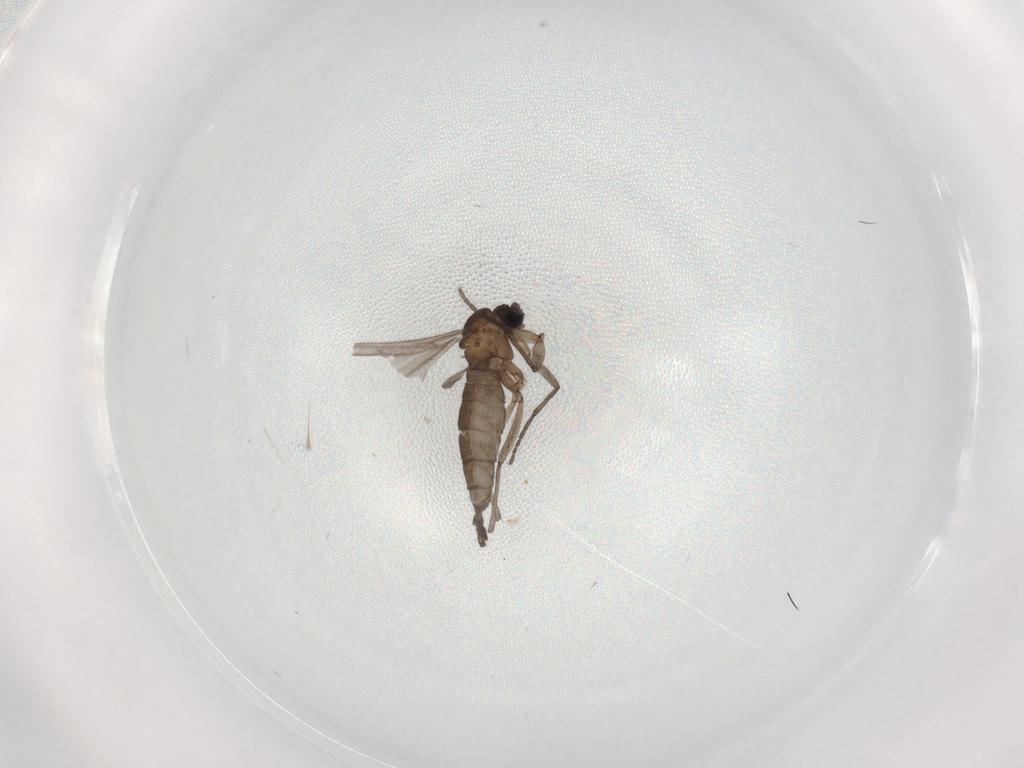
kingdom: Animalia
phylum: Arthropoda
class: Insecta
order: Diptera
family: Sciaridae
